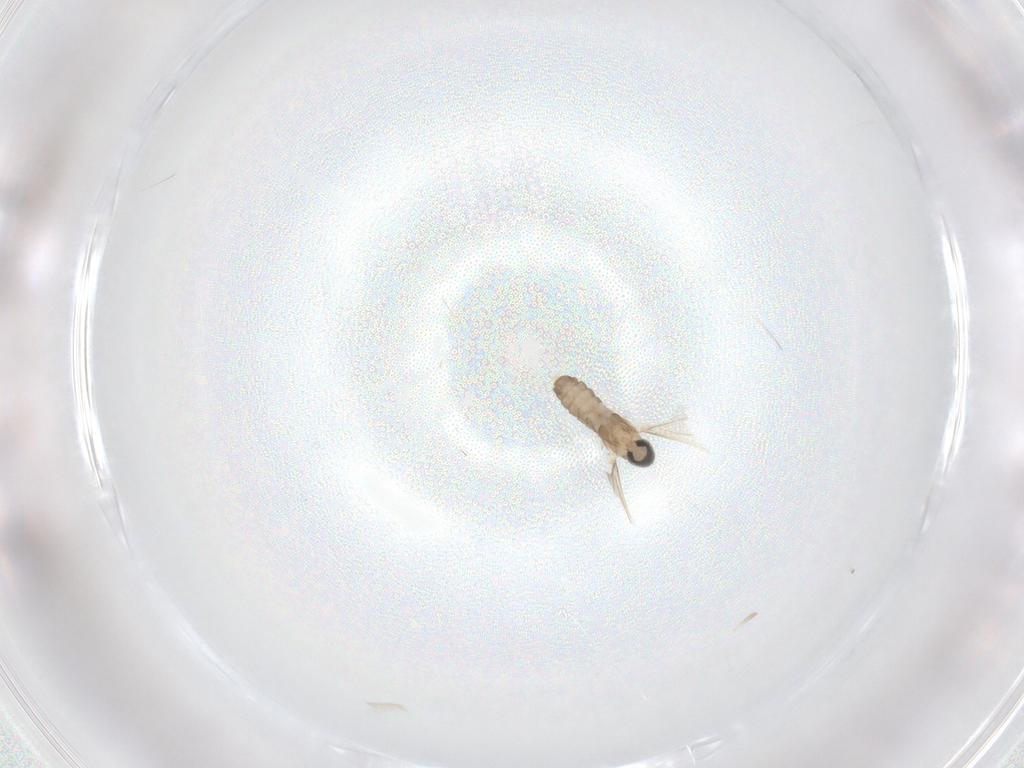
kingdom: Animalia
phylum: Arthropoda
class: Insecta
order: Diptera
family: Cecidomyiidae
